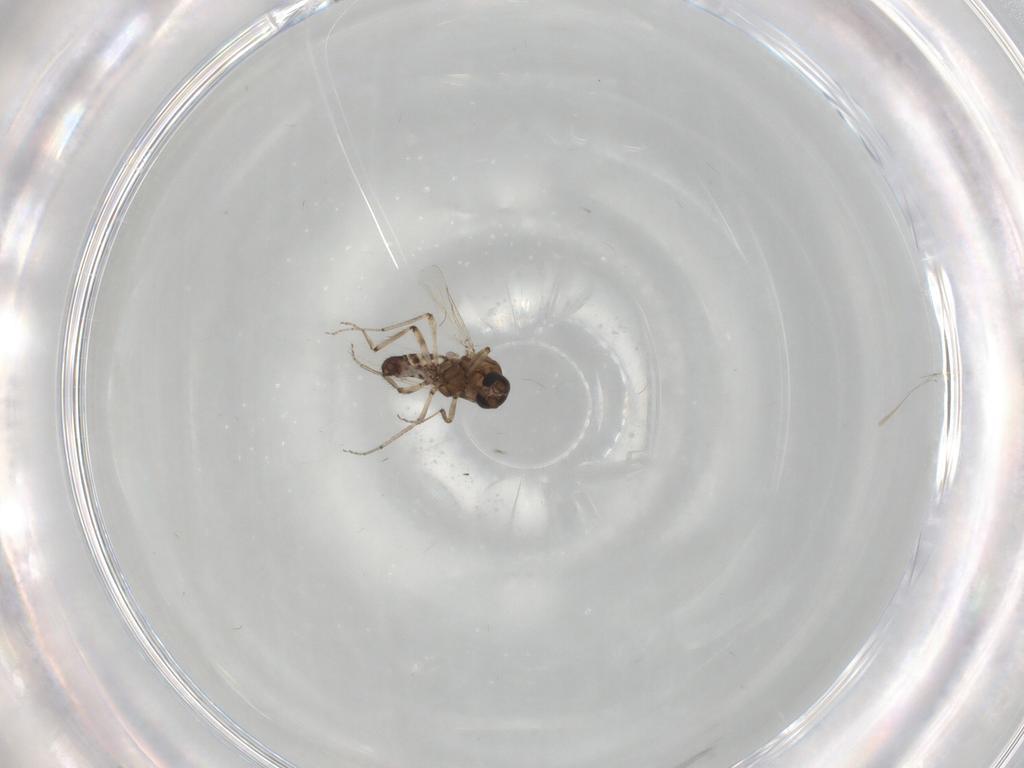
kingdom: Animalia
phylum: Arthropoda
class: Insecta
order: Diptera
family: Ceratopogonidae
